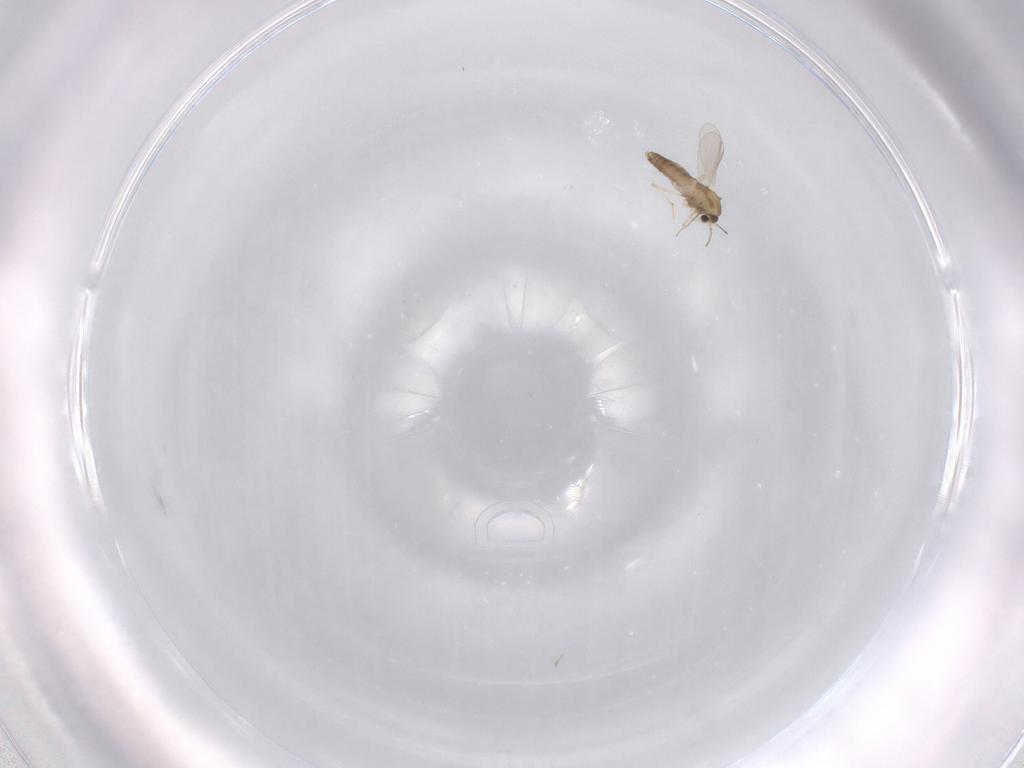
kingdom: Animalia
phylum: Arthropoda
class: Insecta
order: Diptera
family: Chironomidae
